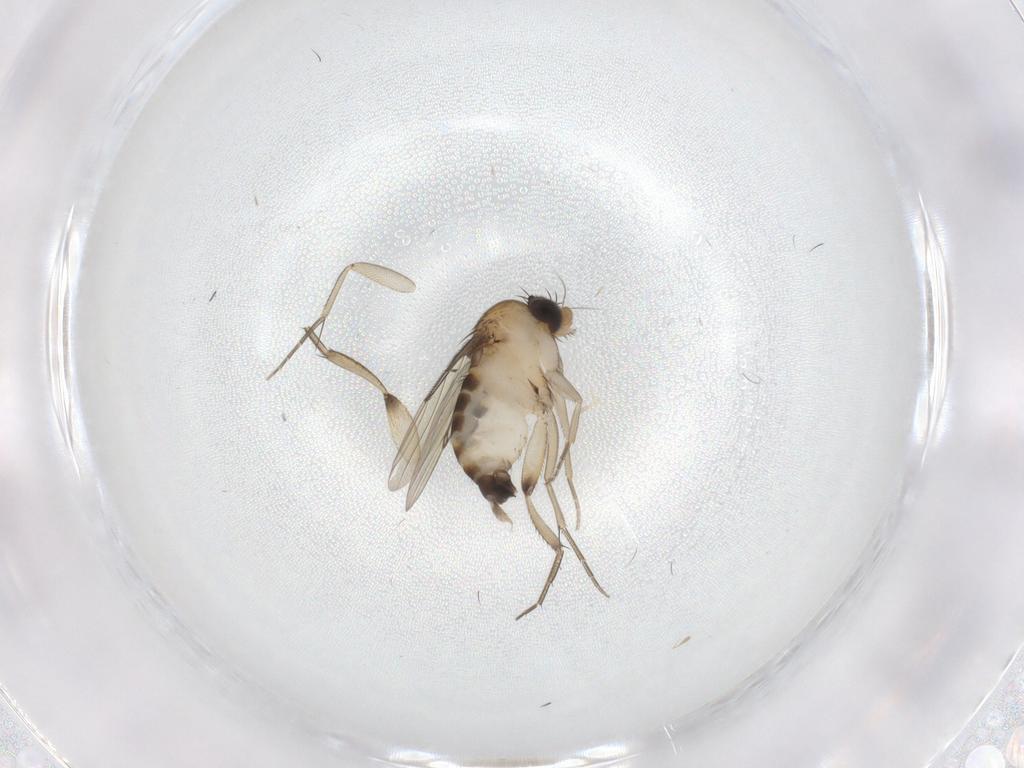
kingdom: Animalia
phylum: Arthropoda
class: Insecta
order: Diptera
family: Phoridae
